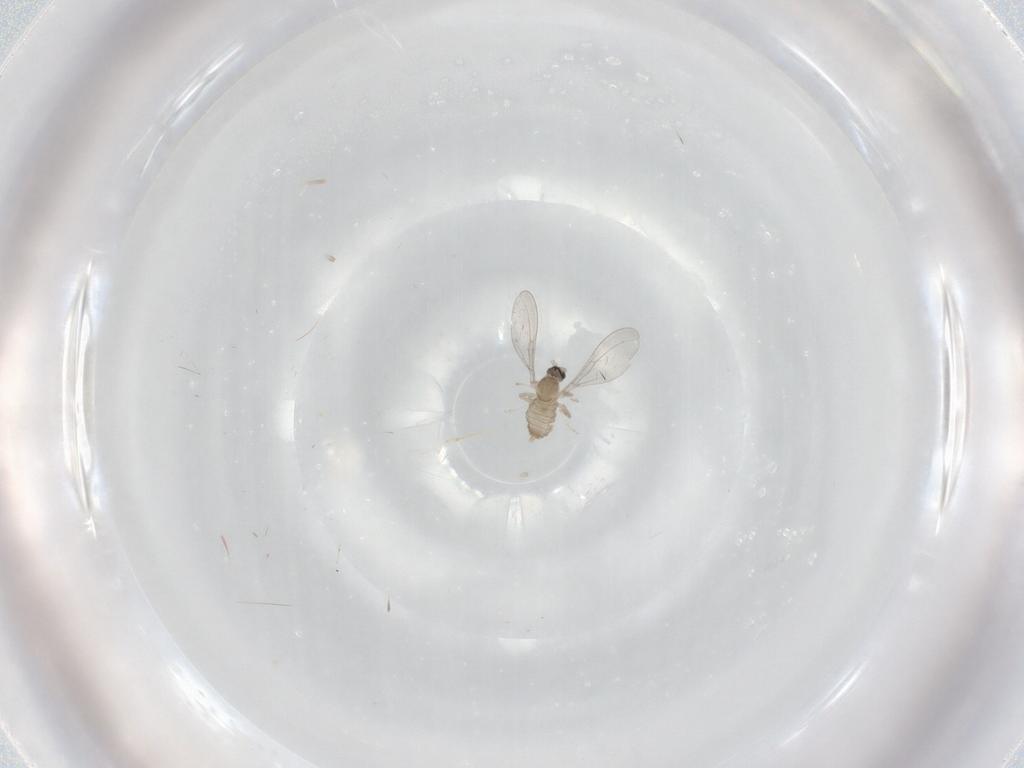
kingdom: Animalia
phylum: Arthropoda
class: Insecta
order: Diptera
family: Cecidomyiidae
